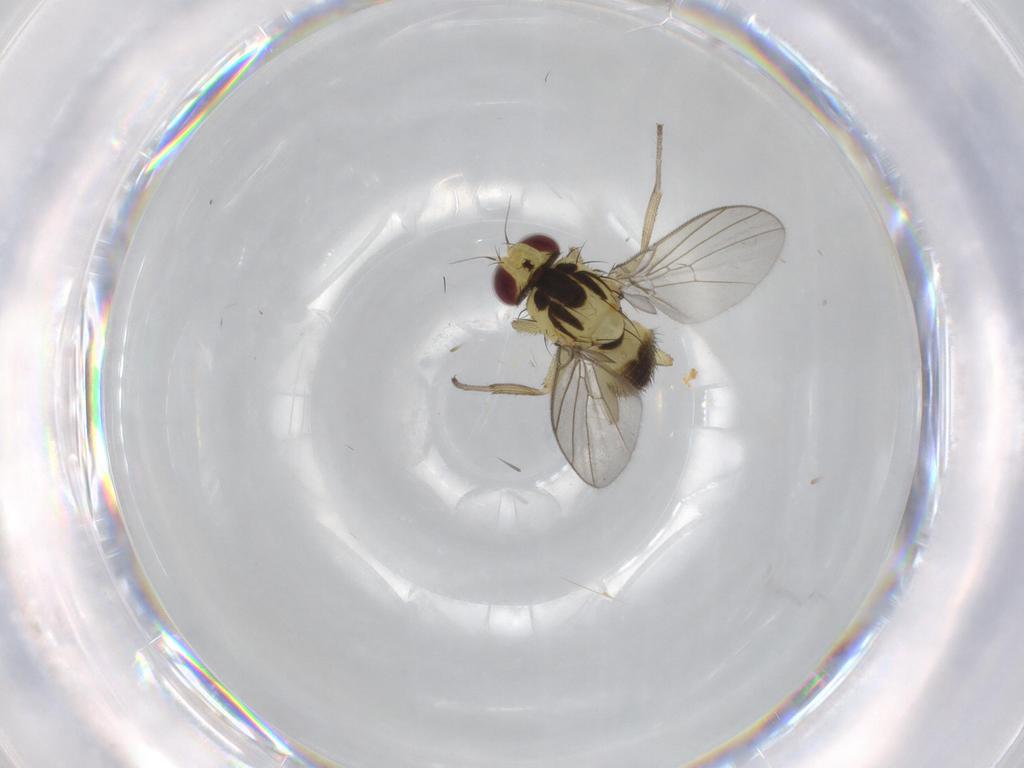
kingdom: Animalia
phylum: Arthropoda
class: Insecta
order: Diptera
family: Agromyzidae
